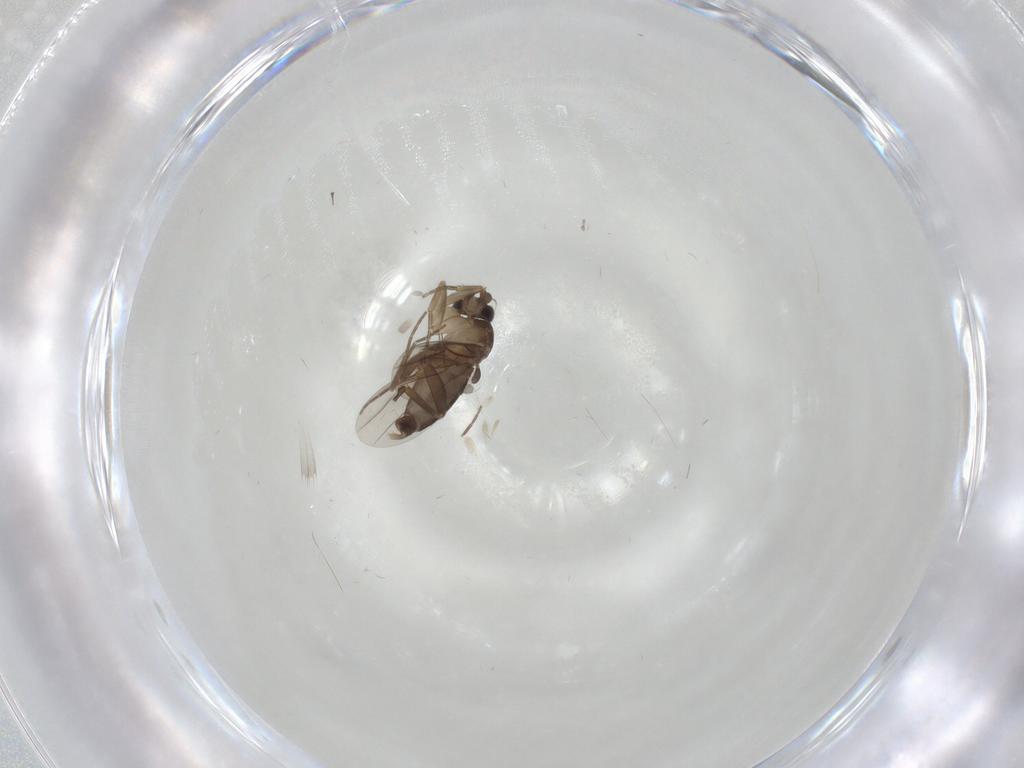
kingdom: Animalia
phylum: Arthropoda
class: Insecta
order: Diptera
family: Phoridae
